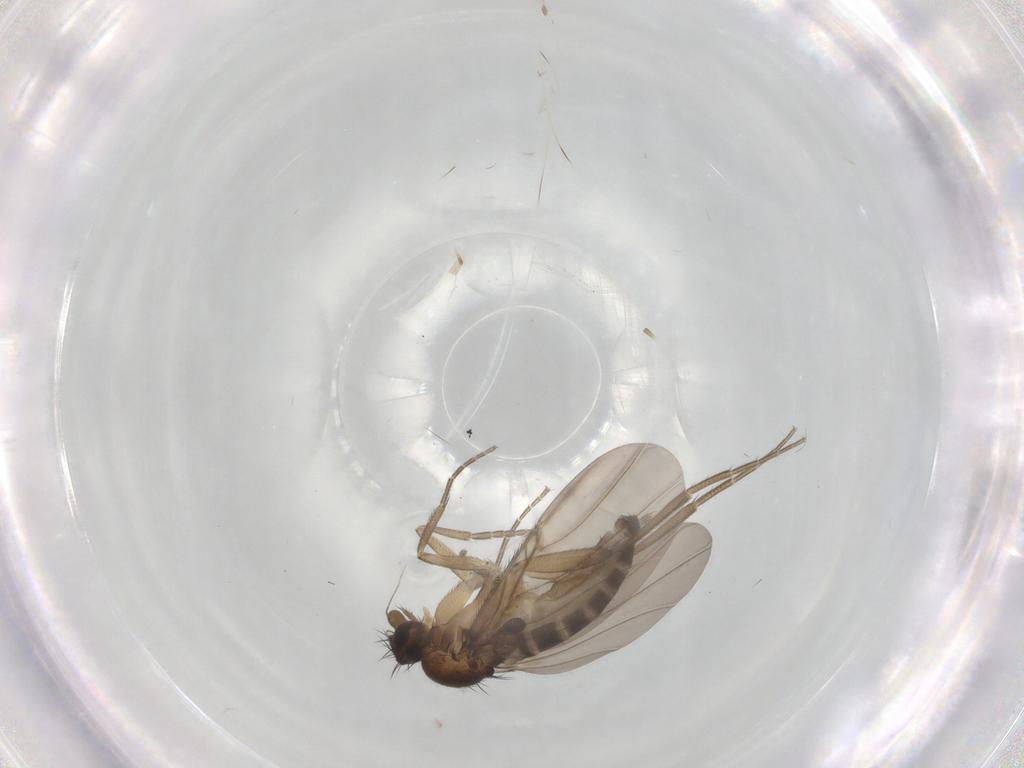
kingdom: Animalia
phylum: Arthropoda
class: Insecta
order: Diptera
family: Phoridae
